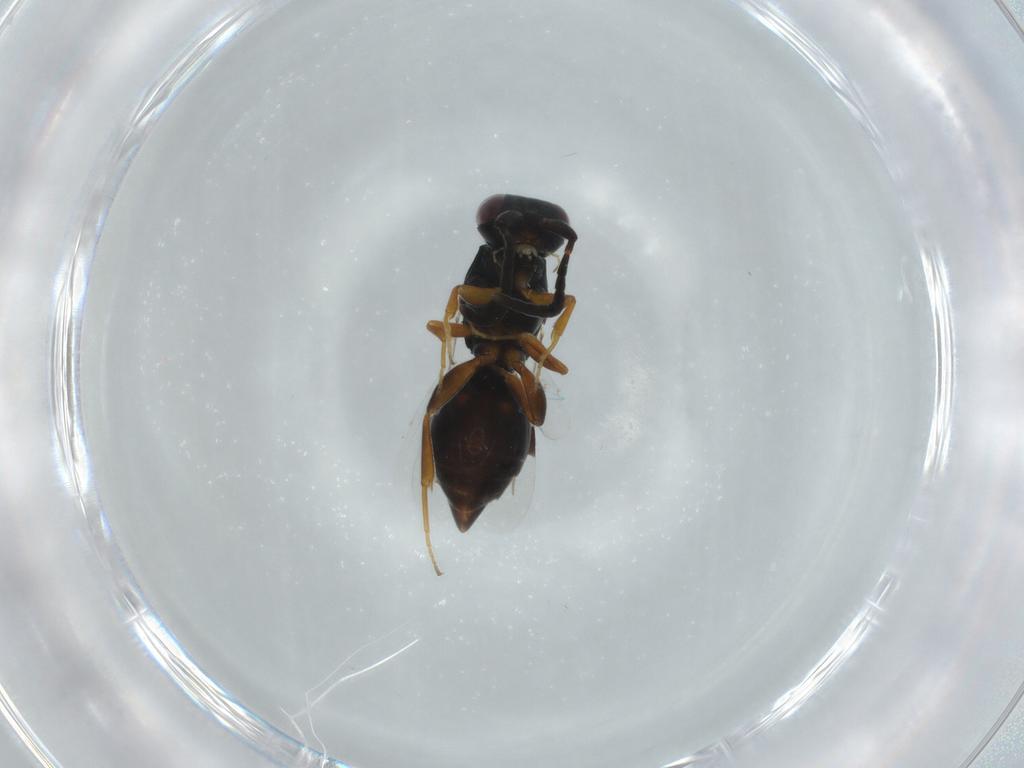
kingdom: Animalia
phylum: Arthropoda
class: Insecta
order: Hymenoptera
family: Megaspilidae
